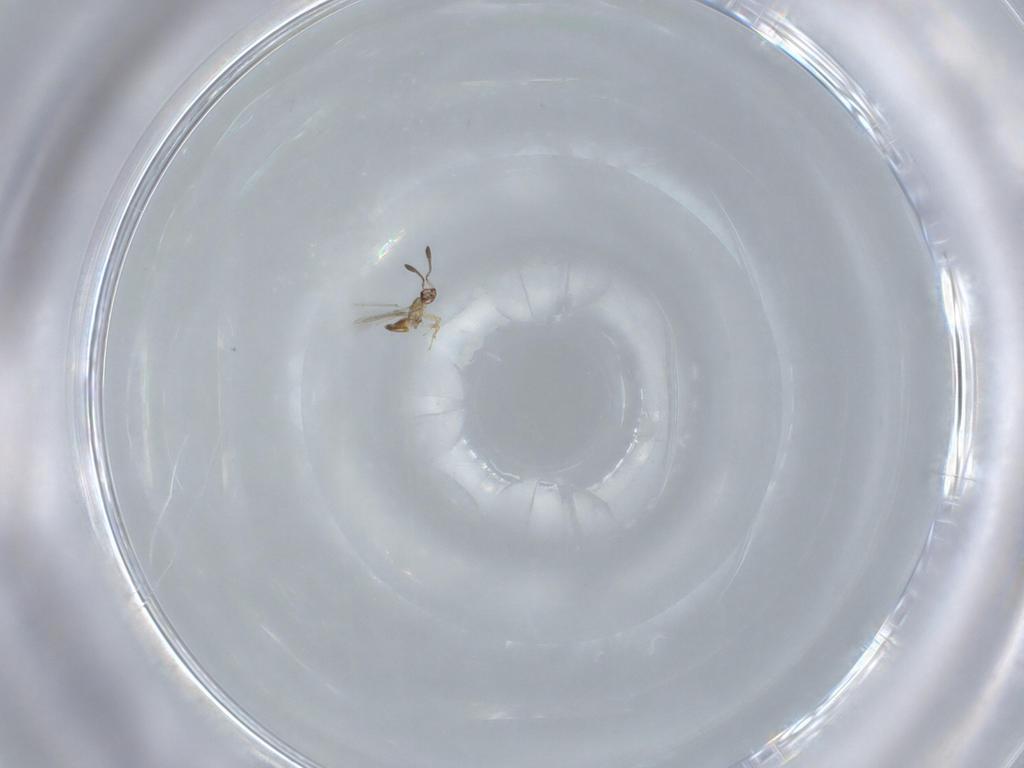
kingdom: Animalia
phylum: Arthropoda
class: Insecta
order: Hymenoptera
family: Mymaridae
